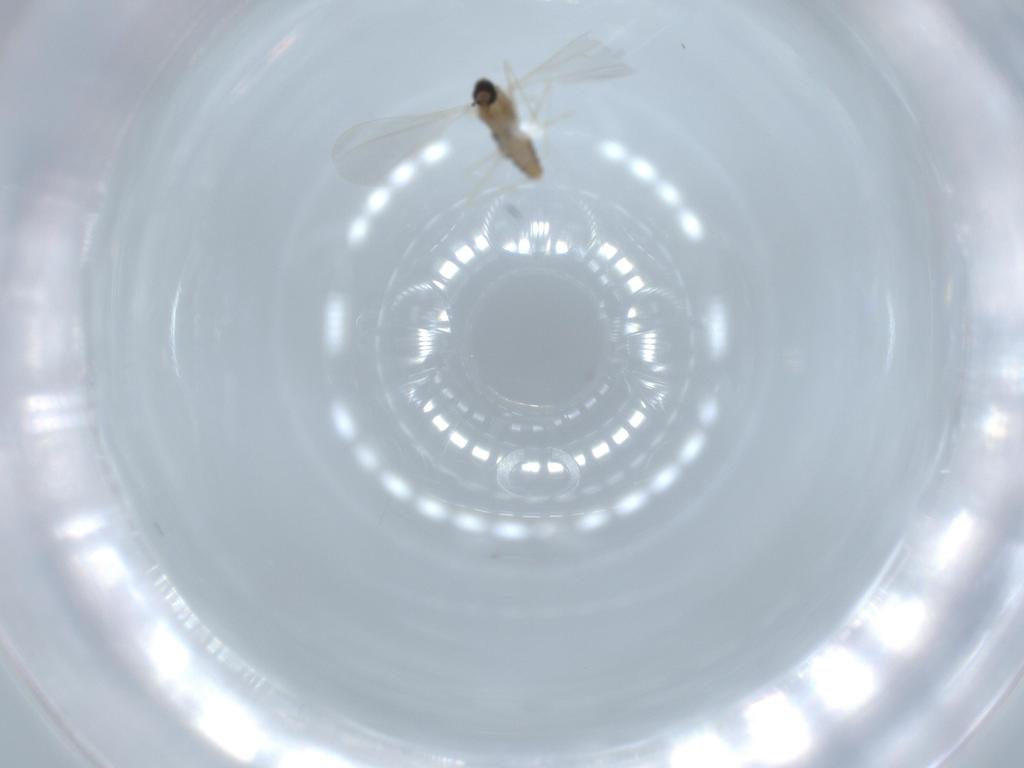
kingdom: Animalia
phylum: Arthropoda
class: Insecta
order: Diptera
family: Cecidomyiidae
